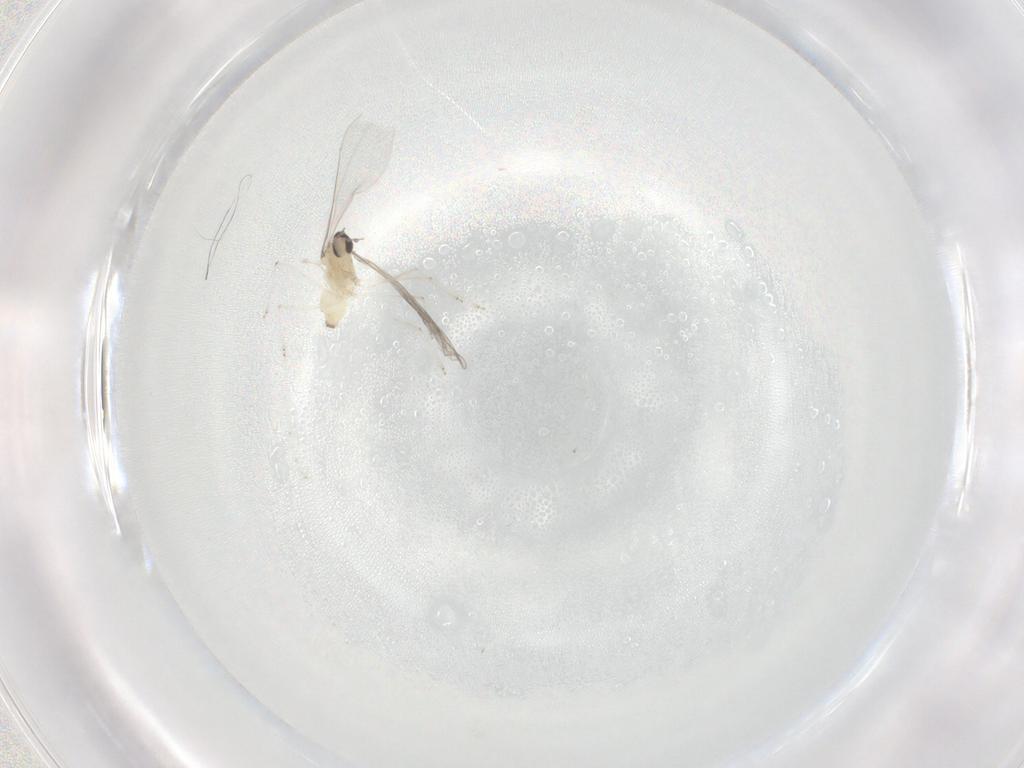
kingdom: Animalia
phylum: Arthropoda
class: Insecta
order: Diptera
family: Cecidomyiidae
